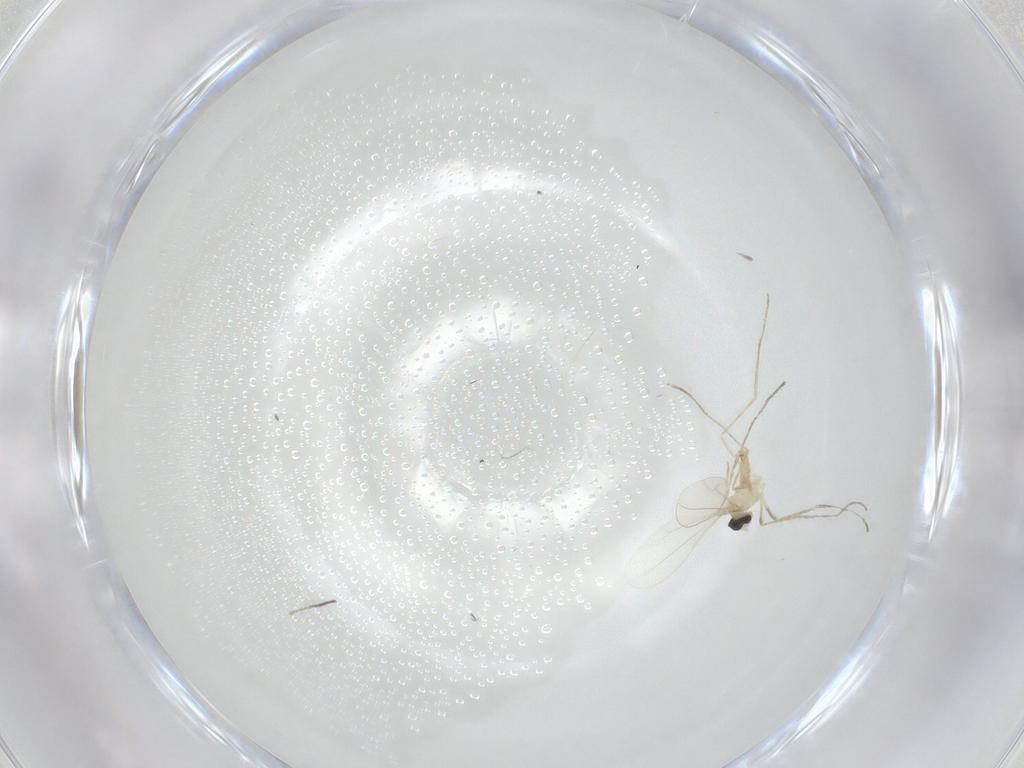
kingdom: Animalia
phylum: Arthropoda
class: Insecta
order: Diptera
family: Cecidomyiidae
